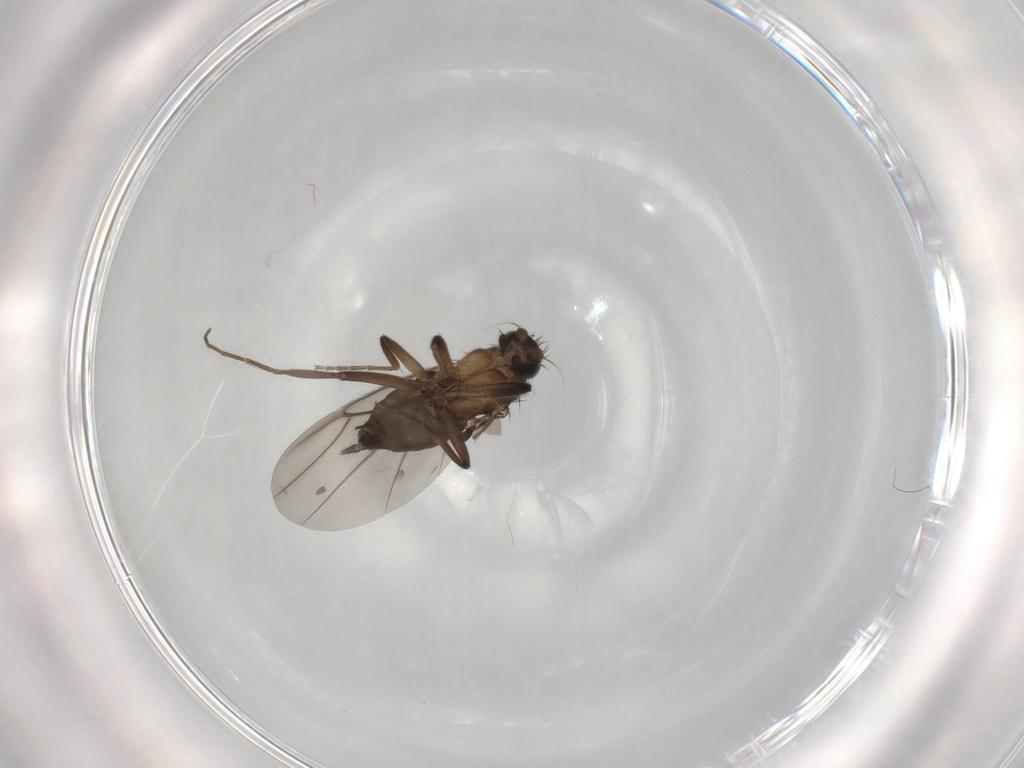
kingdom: Animalia
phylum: Arthropoda
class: Insecta
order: Diptera
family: Phoridae
